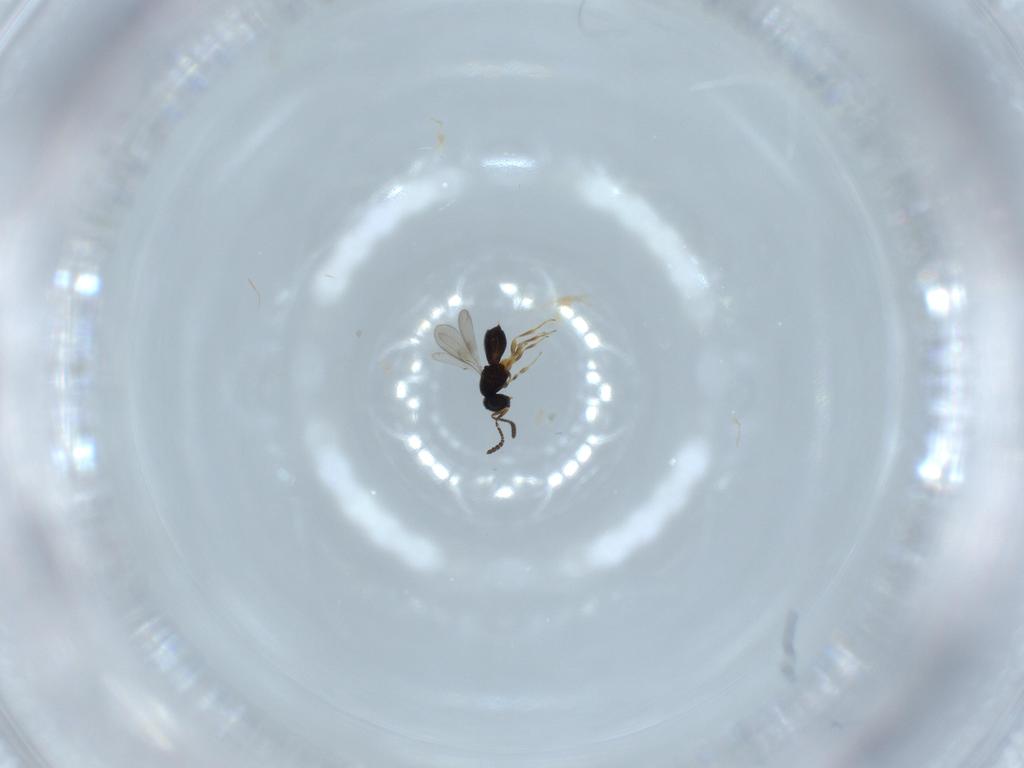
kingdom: Animalia
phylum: Arthropoda
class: Insecta
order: Hymenoptera
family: Scelionidae
